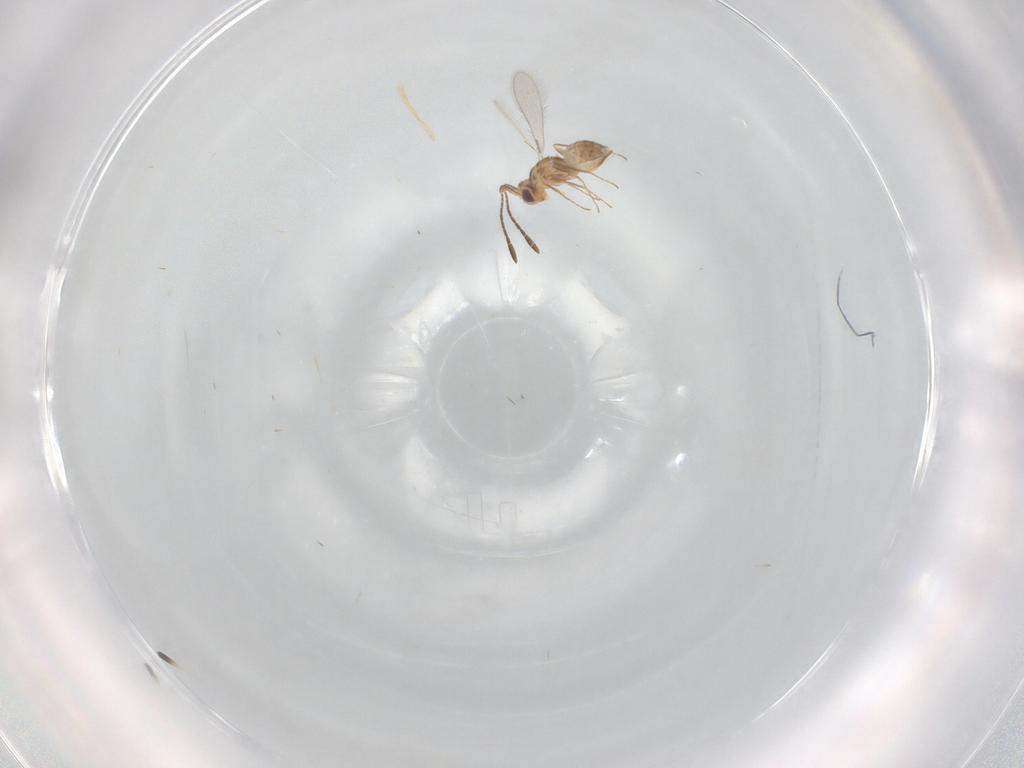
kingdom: Animalia
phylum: Arthropoda
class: Insecta
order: Hymenoptera
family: Mymaridae
